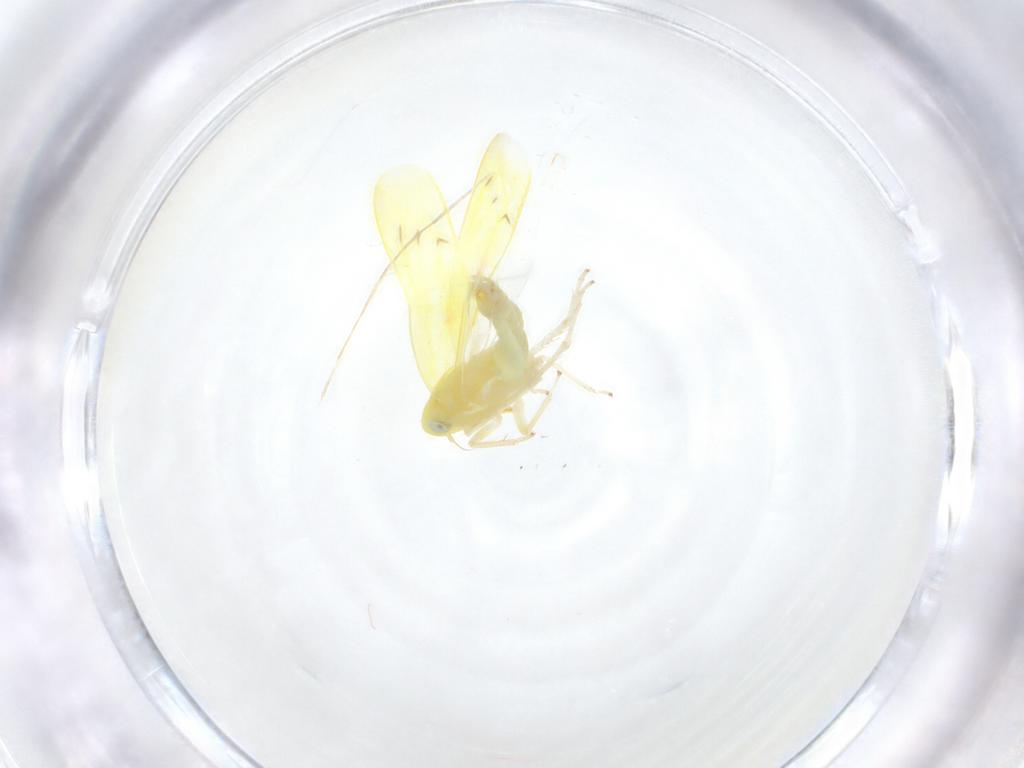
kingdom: Animalia
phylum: Arthropoda
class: Insecta
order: Hemiptera
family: Cicadellidae
